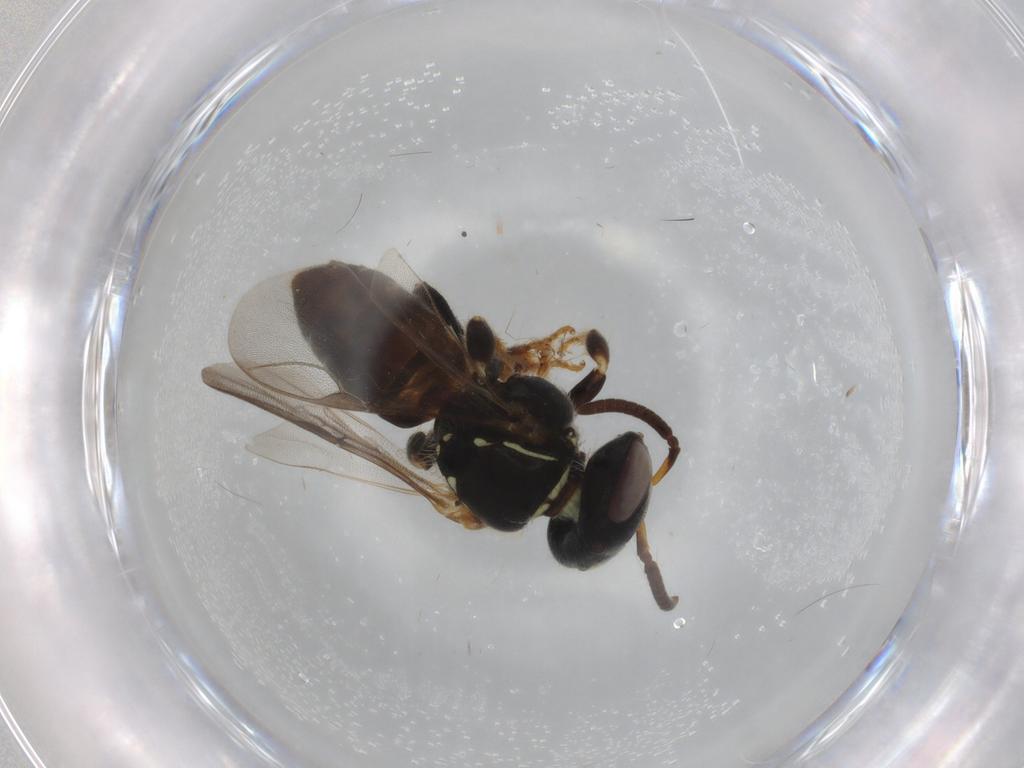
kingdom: Animalia
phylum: Arthropoda
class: Insecta
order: Hymenoptera
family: Apidae
